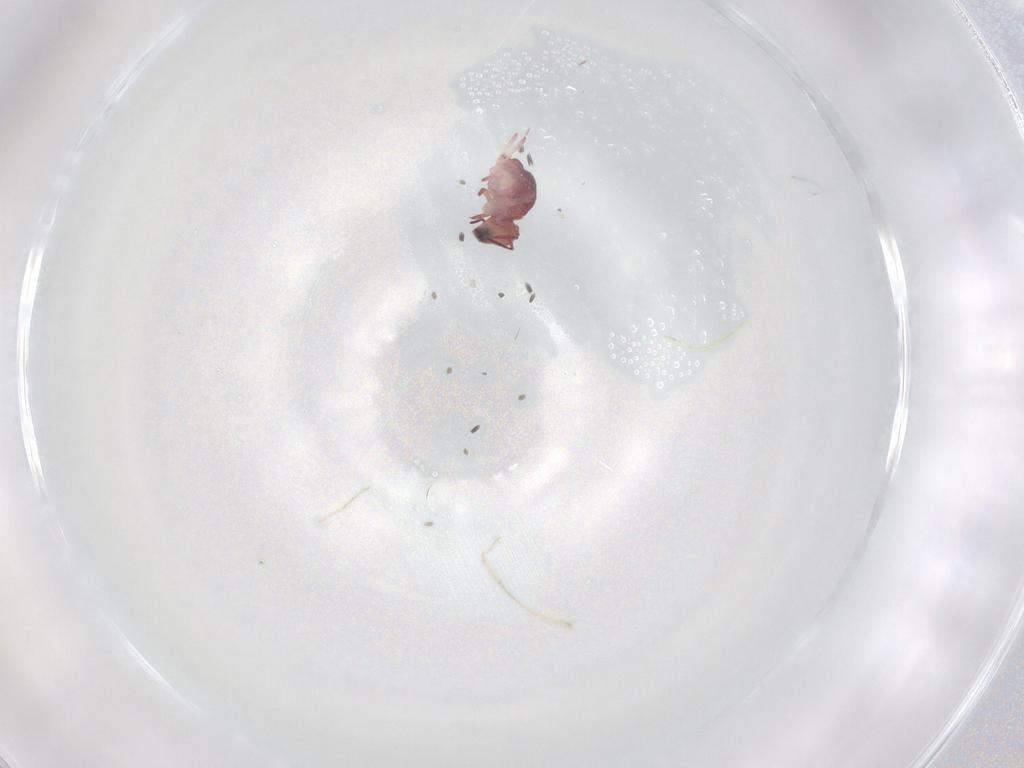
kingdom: Animalia
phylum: Arthropoda
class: Collembola
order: Symphypleona
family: Sminthurididae
